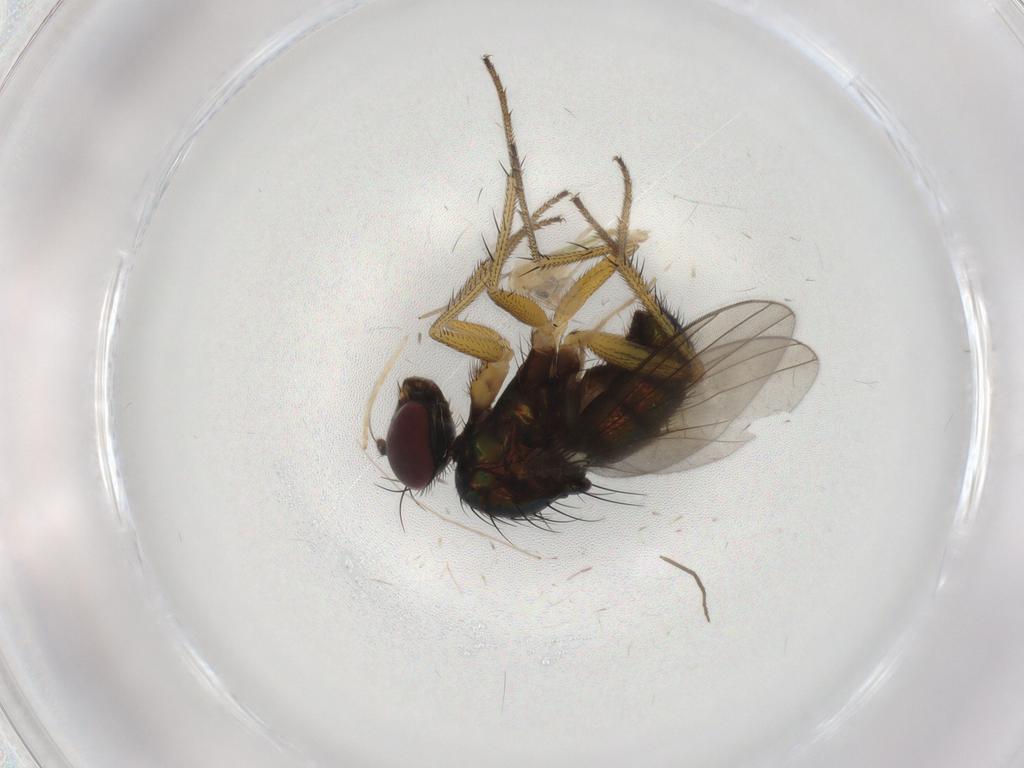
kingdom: Animalia
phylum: Arthropoda
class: Insecta
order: Diptera
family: Dolichopodidae
